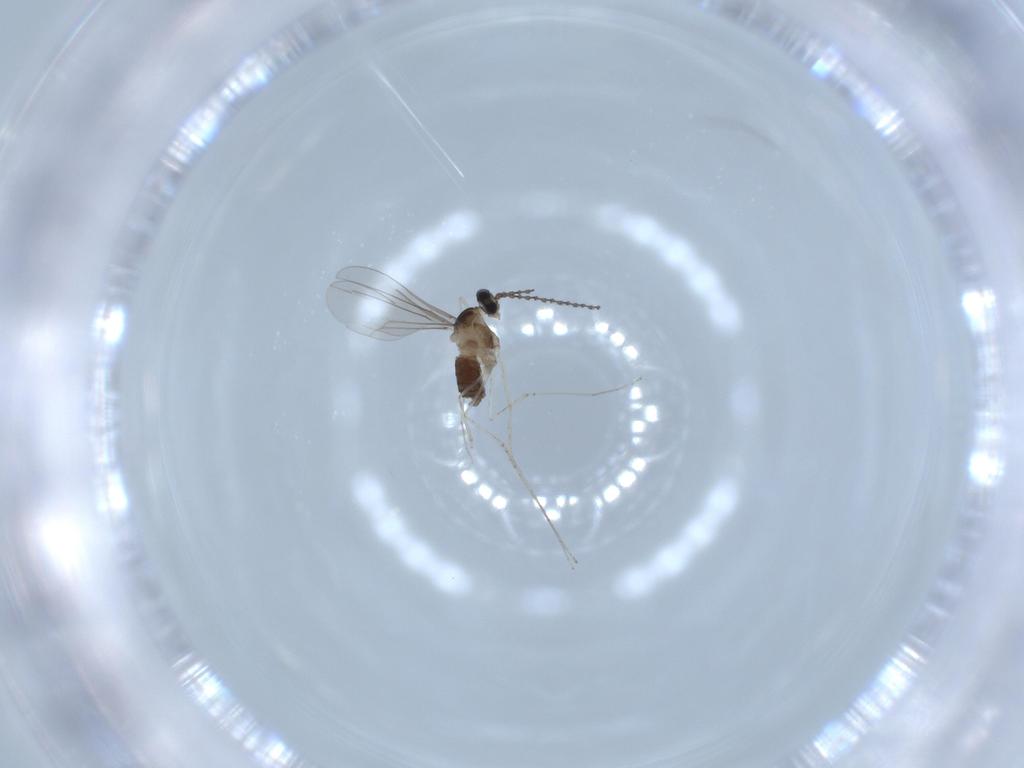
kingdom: Animalia
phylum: Arthropoda
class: Insecta
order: Diptera
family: Cecidomyiidae
